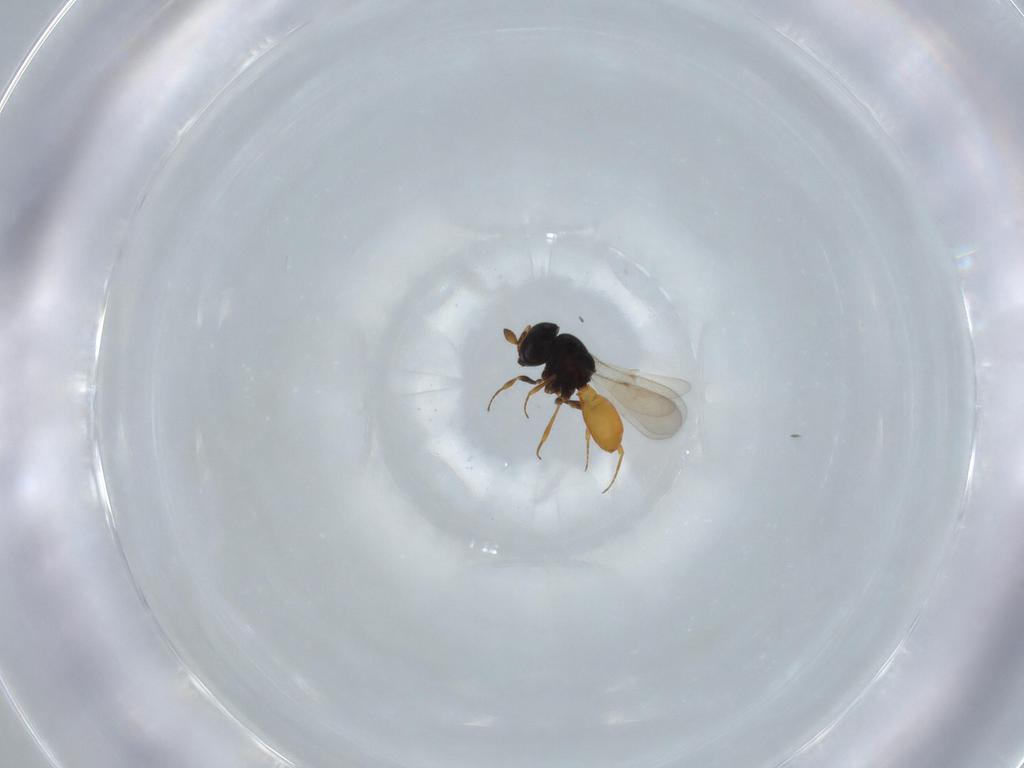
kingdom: Animalia
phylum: Arthropoda
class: Insecta
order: Hymenoptera
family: Scelionidae
